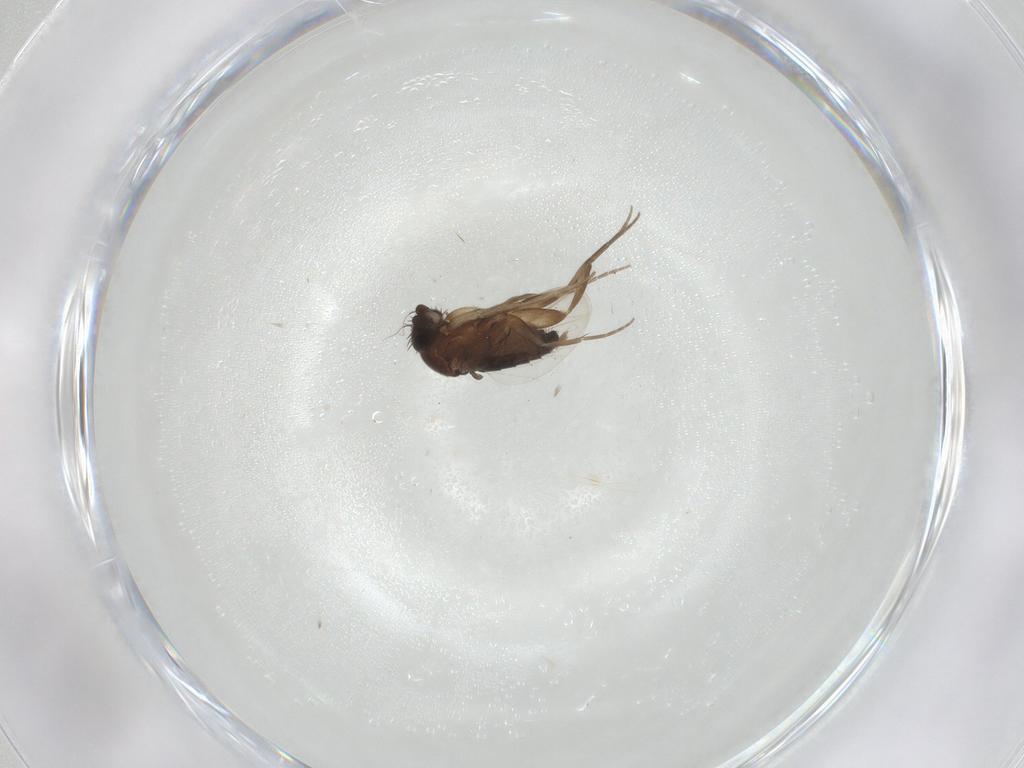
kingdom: Animalia
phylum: Arthropoda
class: Insecta
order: Diptera
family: Phoridae
